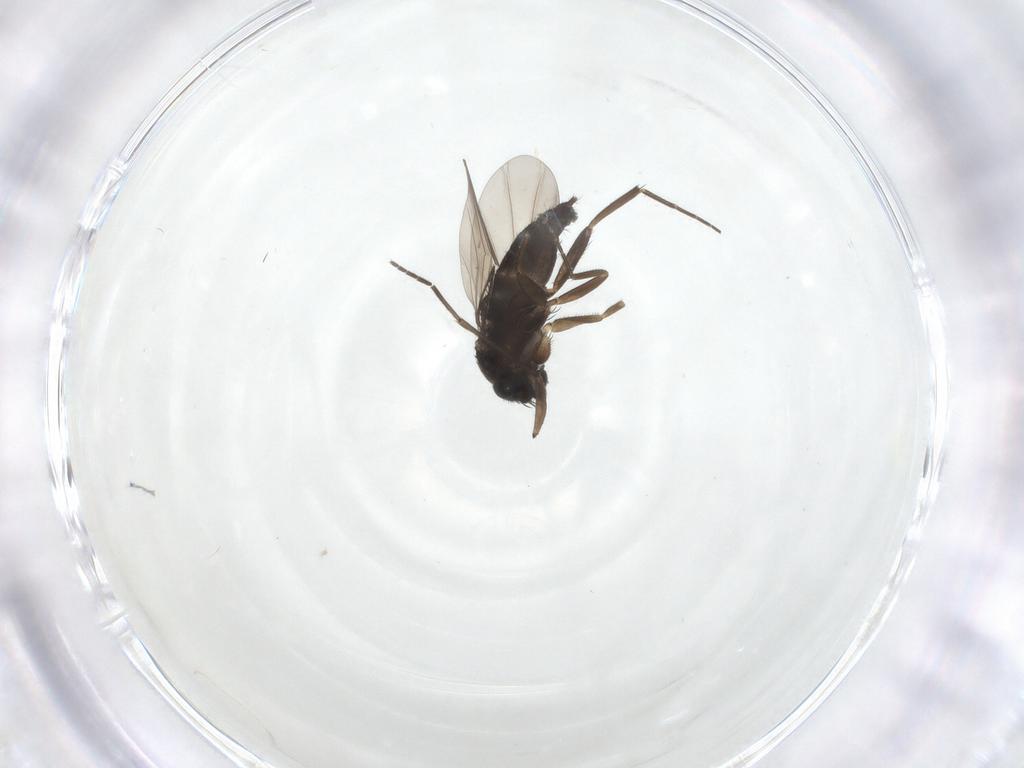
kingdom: Animalia
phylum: Arthropoda
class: Insecta
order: Diptera
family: Phoridae
